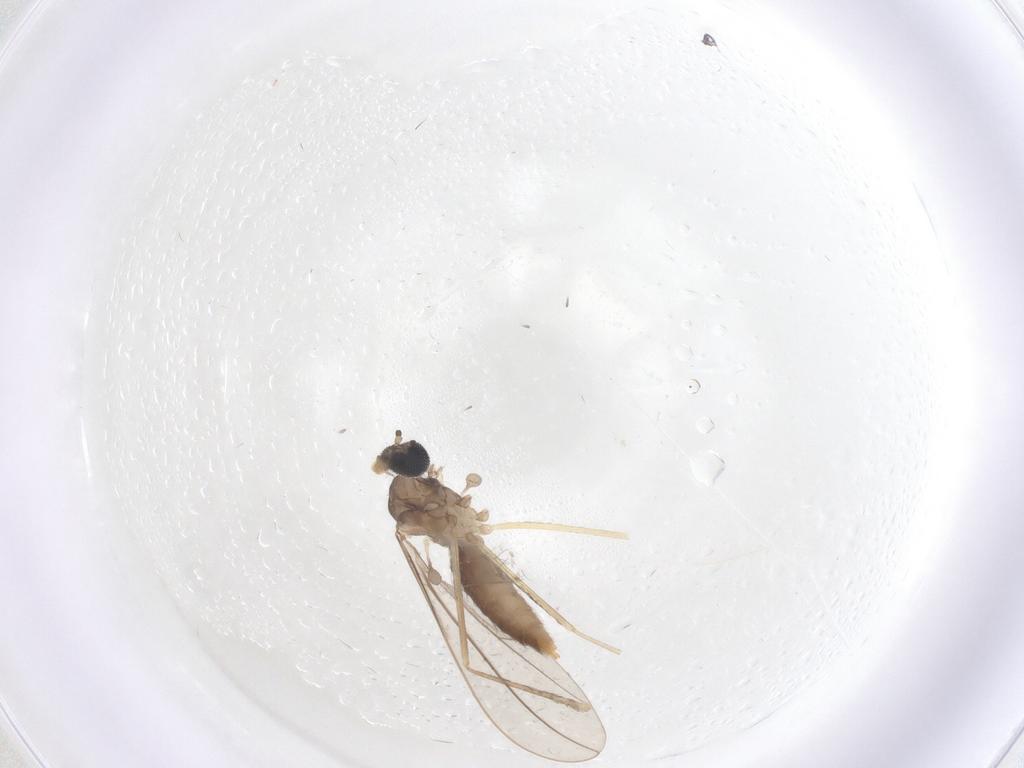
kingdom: Animalia
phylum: Arthropoda
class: Insecta
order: Diptera
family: Cecidomyiidae
